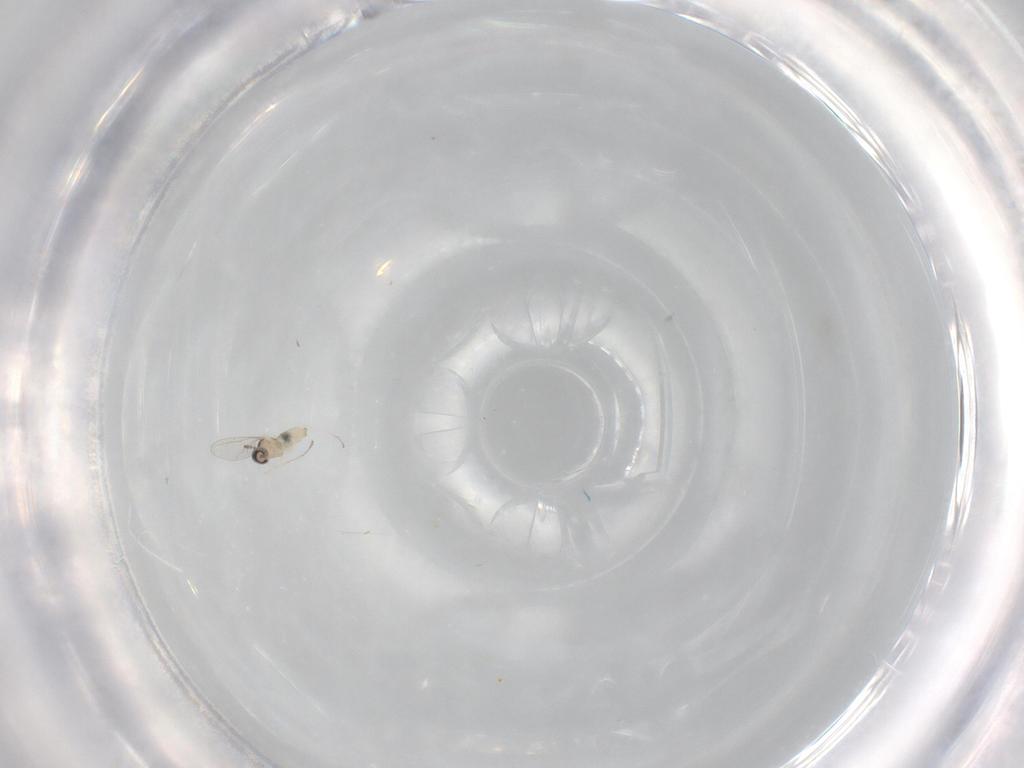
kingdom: Animalia
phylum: Arthropoda
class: Insecta
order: Diptera
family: Cecidomyiidae
